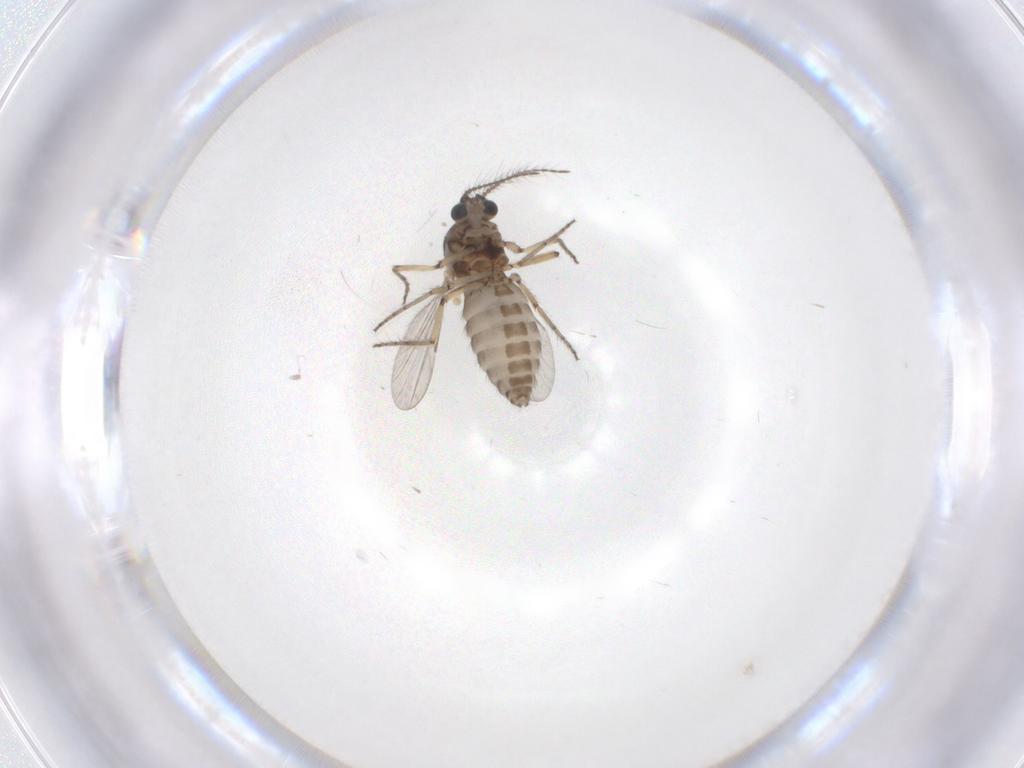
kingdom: Animalia
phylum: Arthropoda
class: Insecta
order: Diptera
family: Ceratopogonidae
